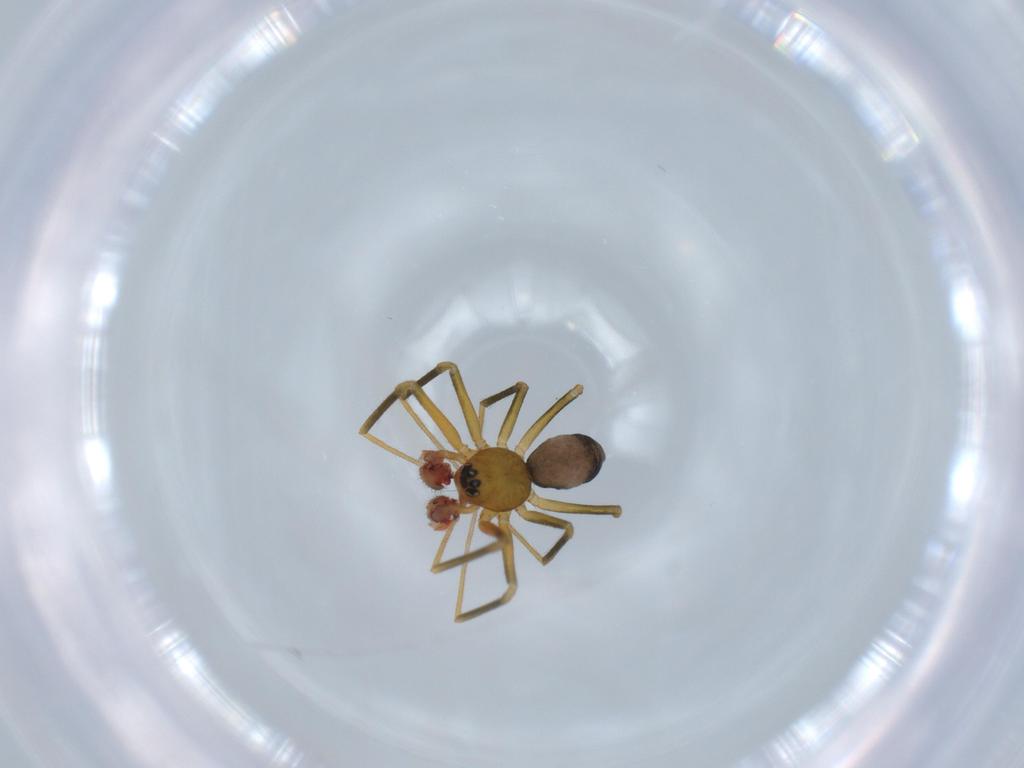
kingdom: Animalia
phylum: Arthropoda
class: Arachnida
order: Araneae
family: Linyphiidae
